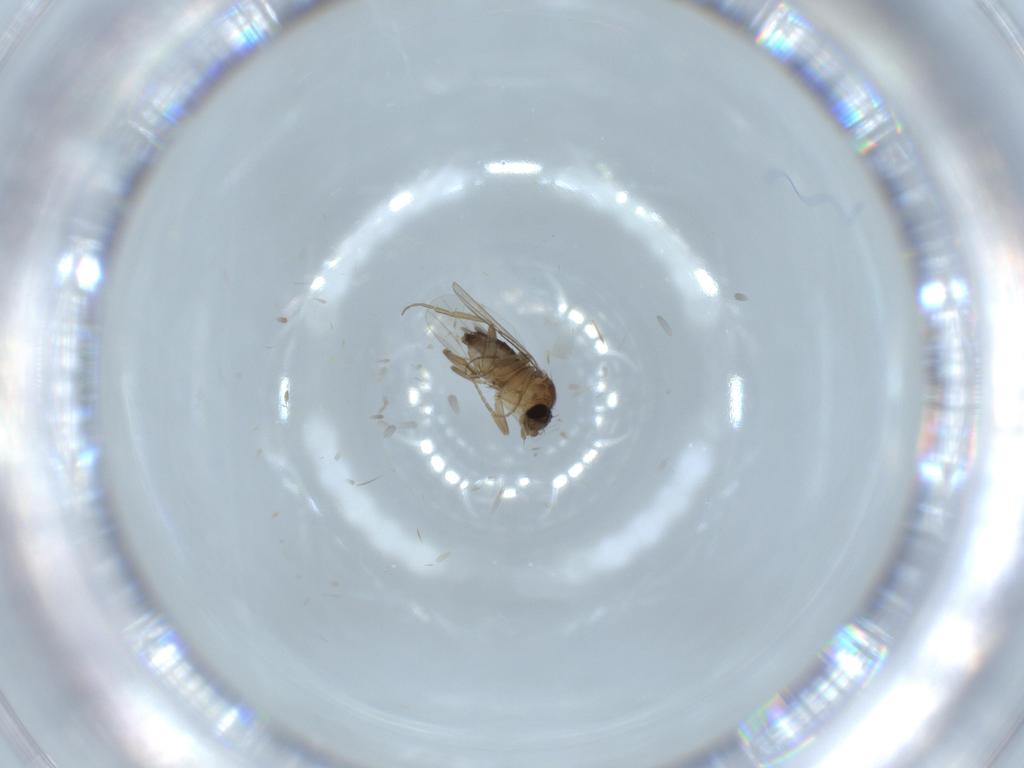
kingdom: Animalia
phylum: Arthropoda
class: Insecta
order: Diptera
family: Phoridae
